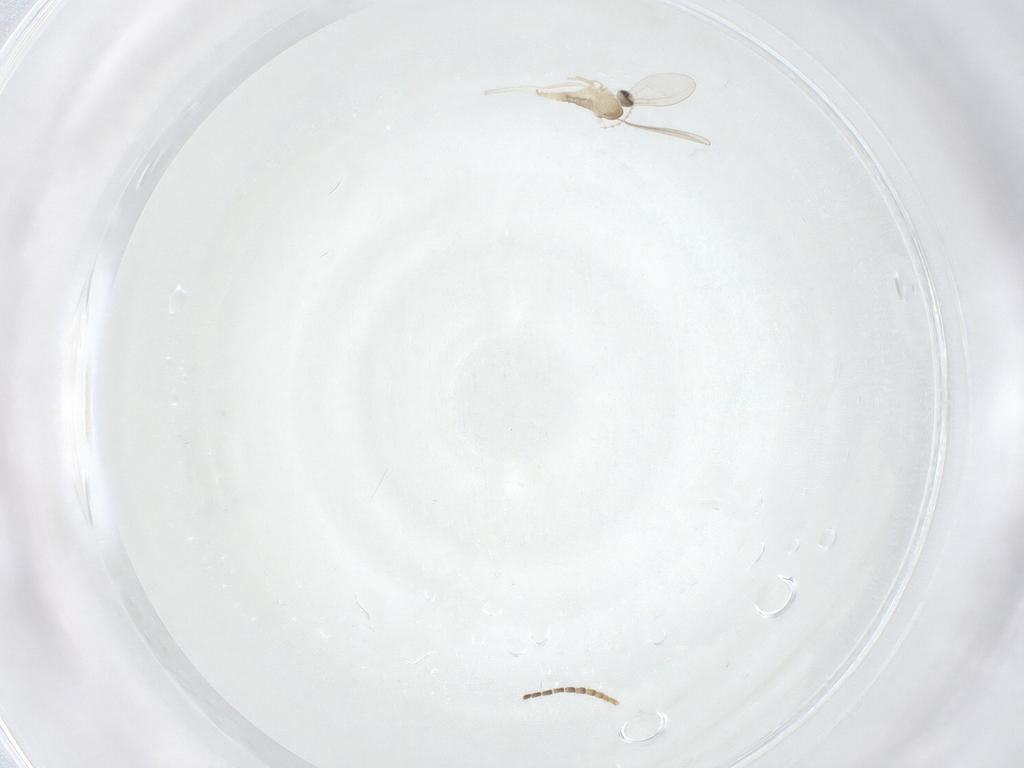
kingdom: Animalia
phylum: Arthropoda
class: Insecta
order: Diptera
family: Sciaridae
